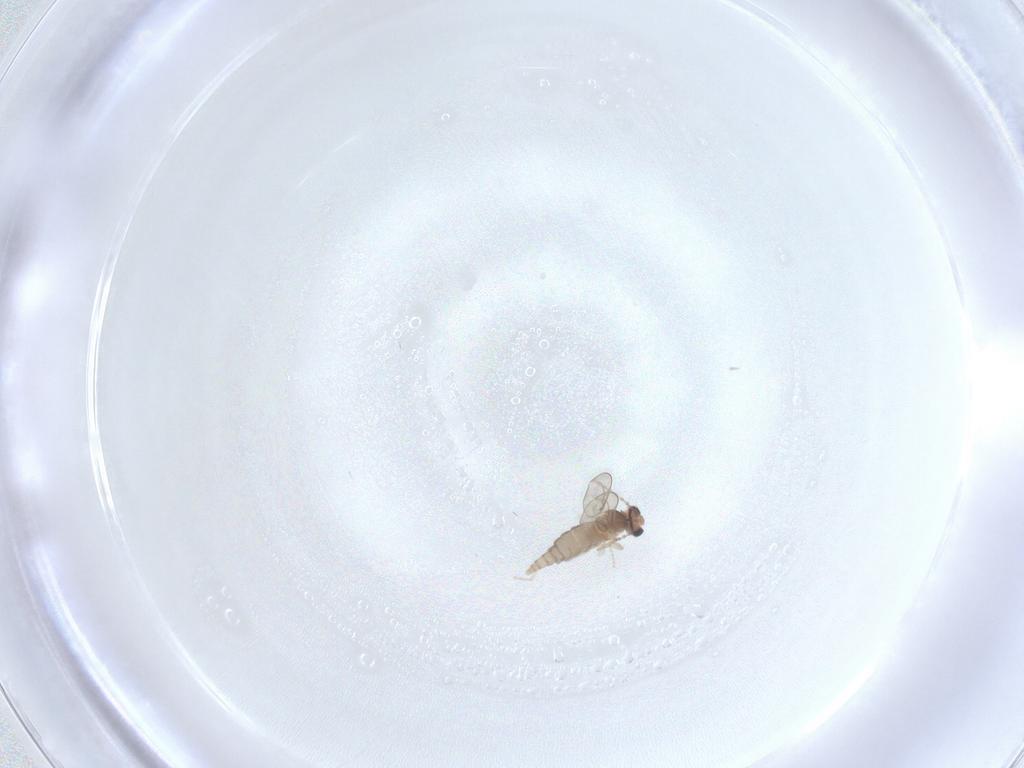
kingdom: Animalia
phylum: Arthropoda
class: Insecta
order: Diptera
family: Cecidomyiidae
